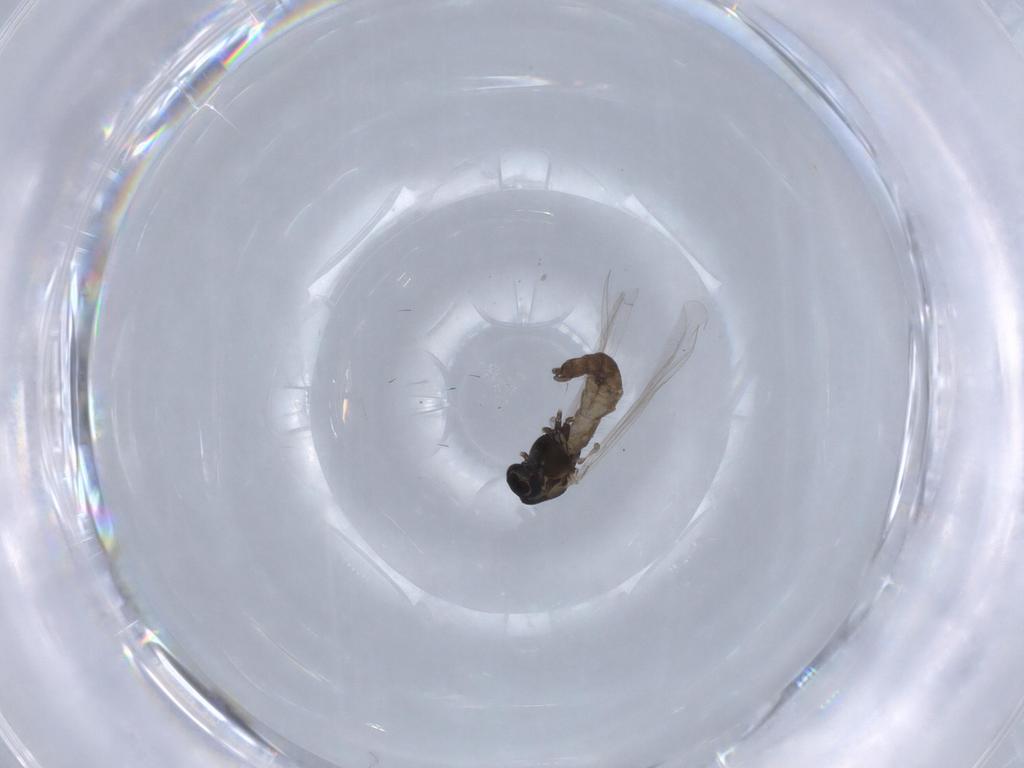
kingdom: Animalia
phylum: Arthropoda
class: Insecta
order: Diptera
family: Chironomidae
